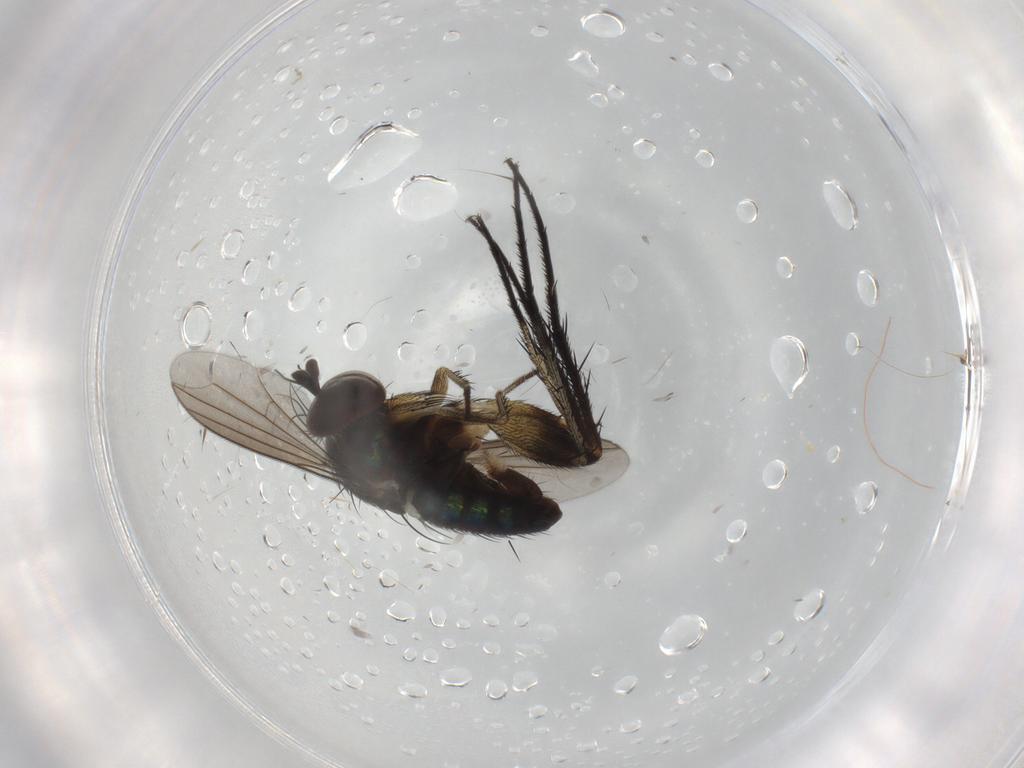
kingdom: Animalia
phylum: Arthropoda
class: Insecta
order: Diptera
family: Dolichopodidae
